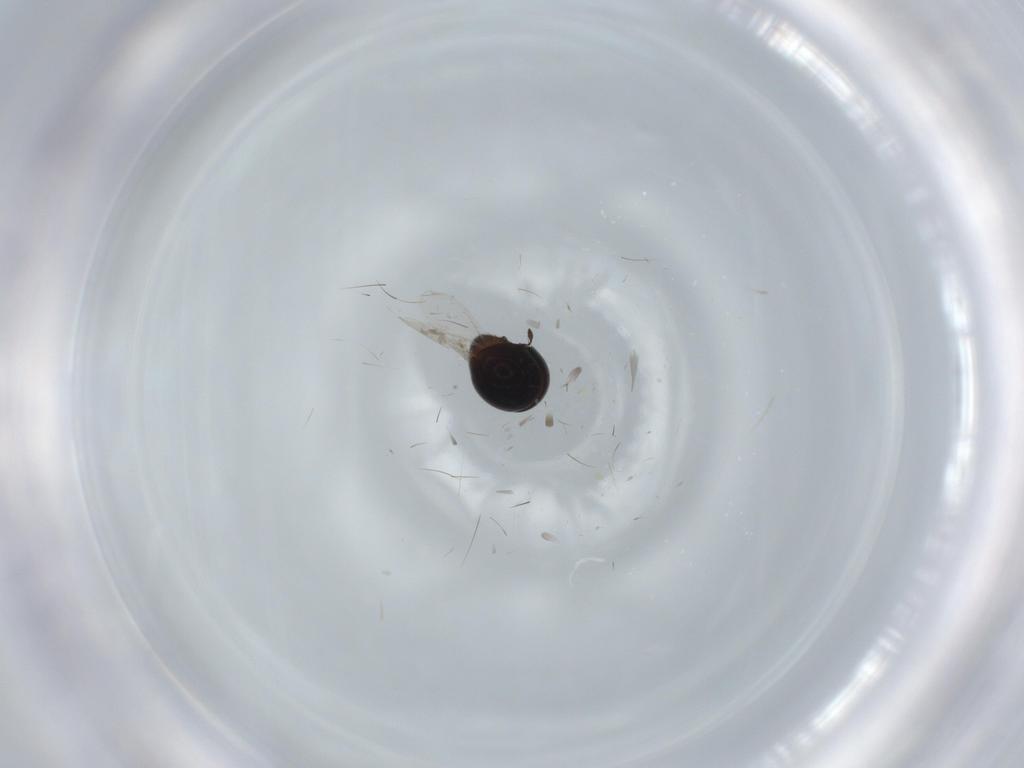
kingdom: Animalia
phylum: Arthropoda
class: Insecta
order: Coleoptera
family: Cybocephalidae
